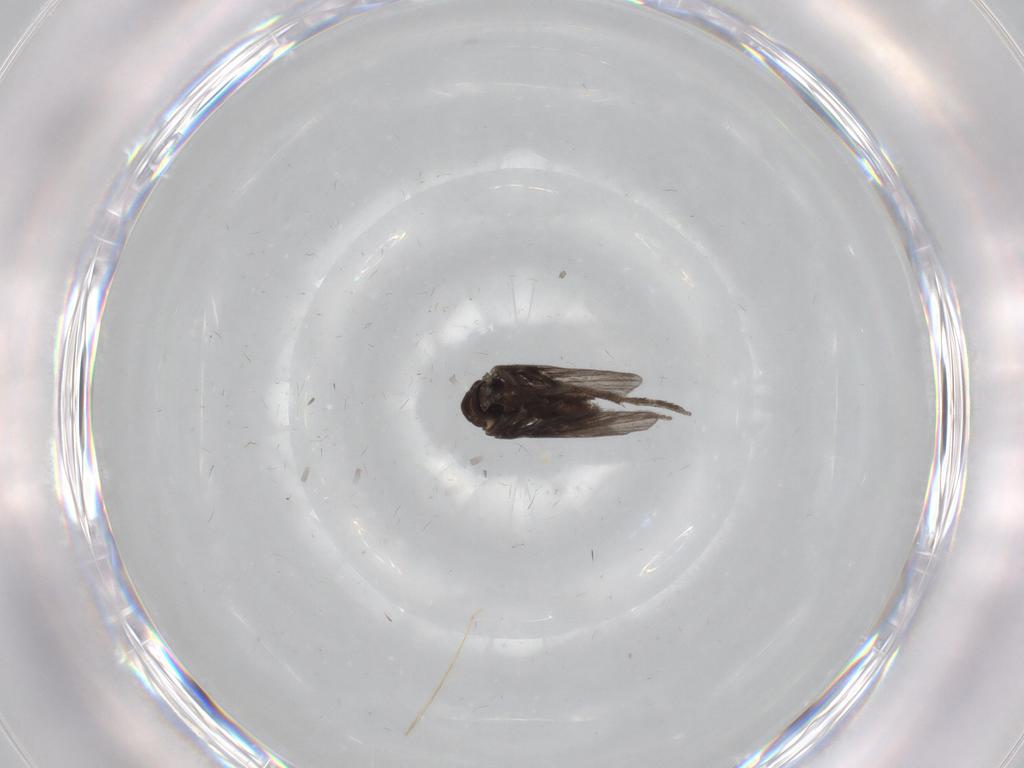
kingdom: Animalia
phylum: Arthropoda
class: Insecta
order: Diptera
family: Psychodidae
